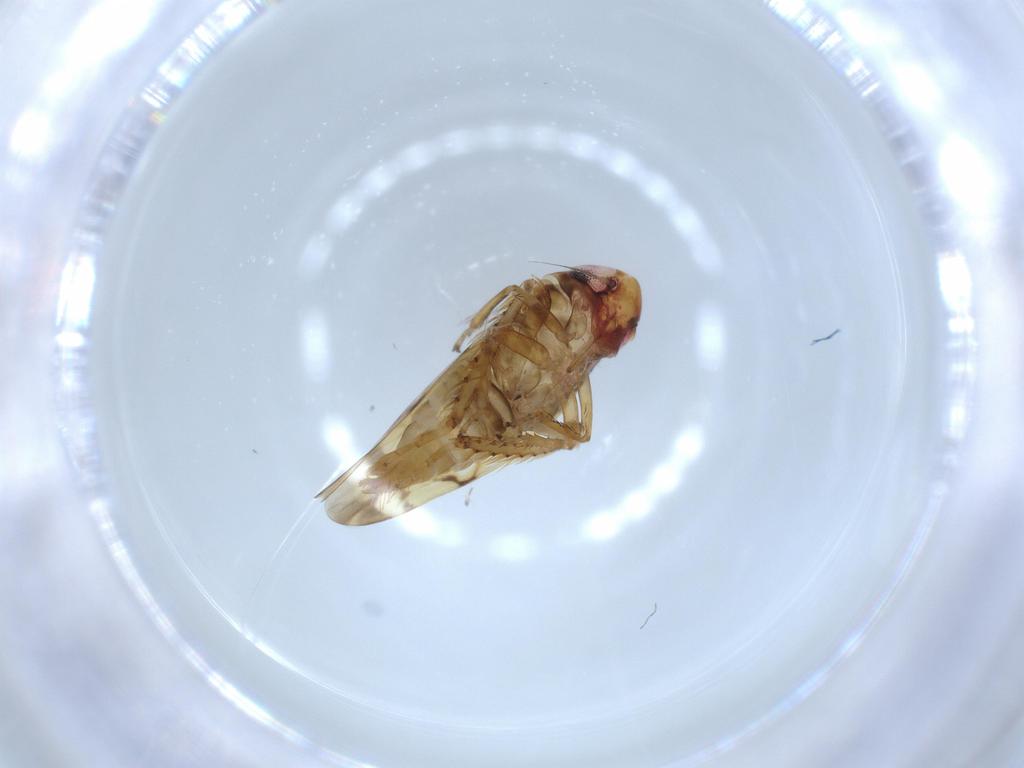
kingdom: Animalia
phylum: Arthropoda
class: Insecta
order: Hemiptera
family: Cicadellidae
